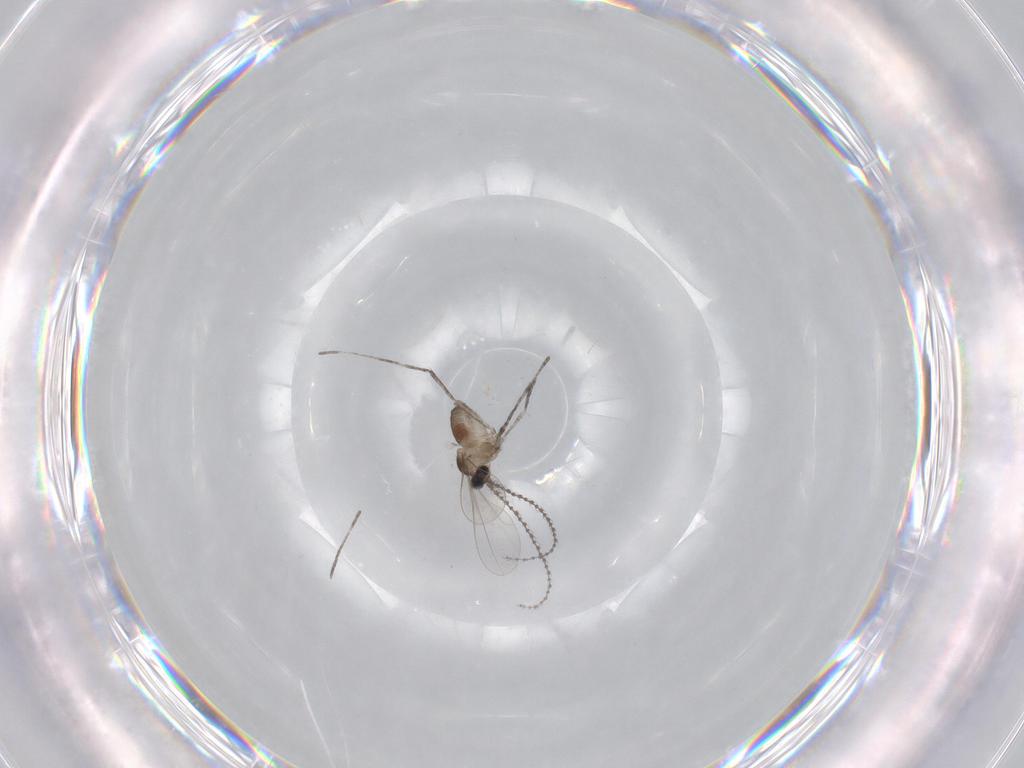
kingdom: Animalia
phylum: Arthropoda
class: Insecta
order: Diptera
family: Cecidomyiidae
